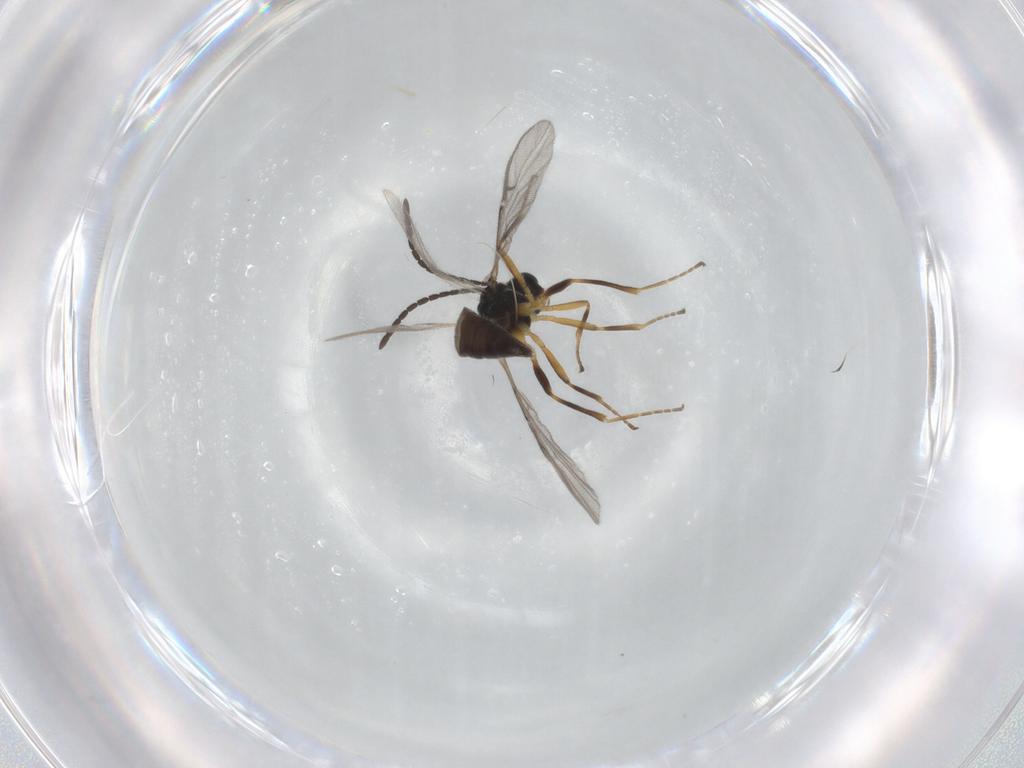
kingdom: Animalia
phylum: Arthropoda
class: Insecta
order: Hymenoptera
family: Braconidae
